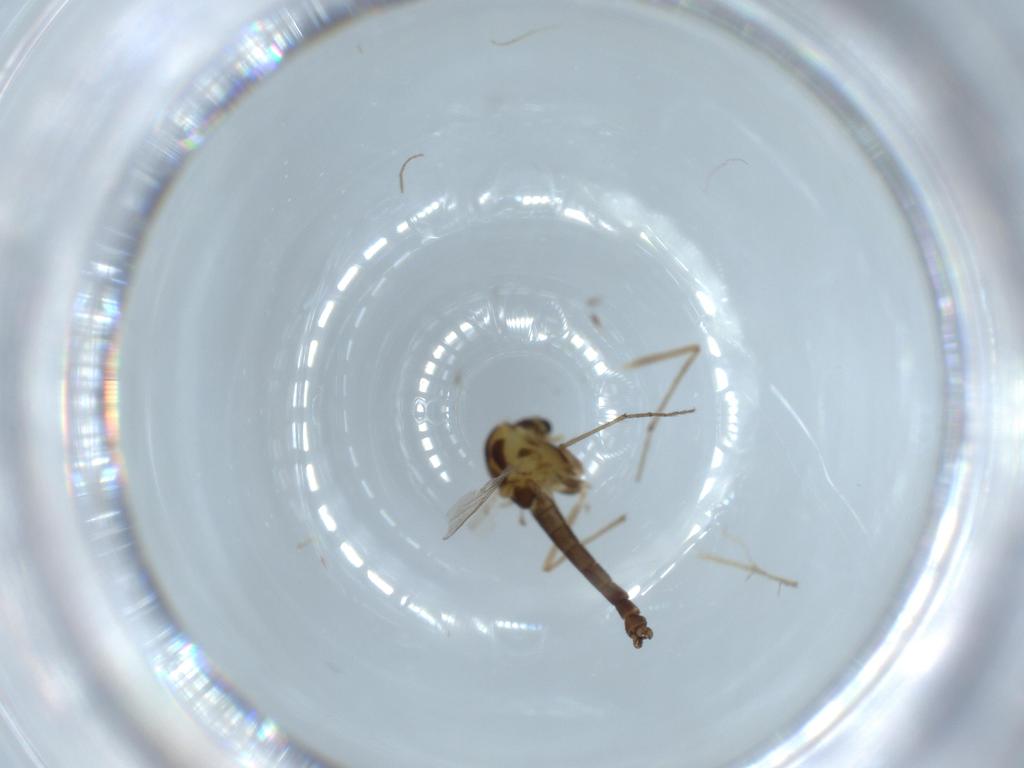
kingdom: Animalia
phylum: Arthropoda
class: Insecta
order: Diptera
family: Chironomidae
